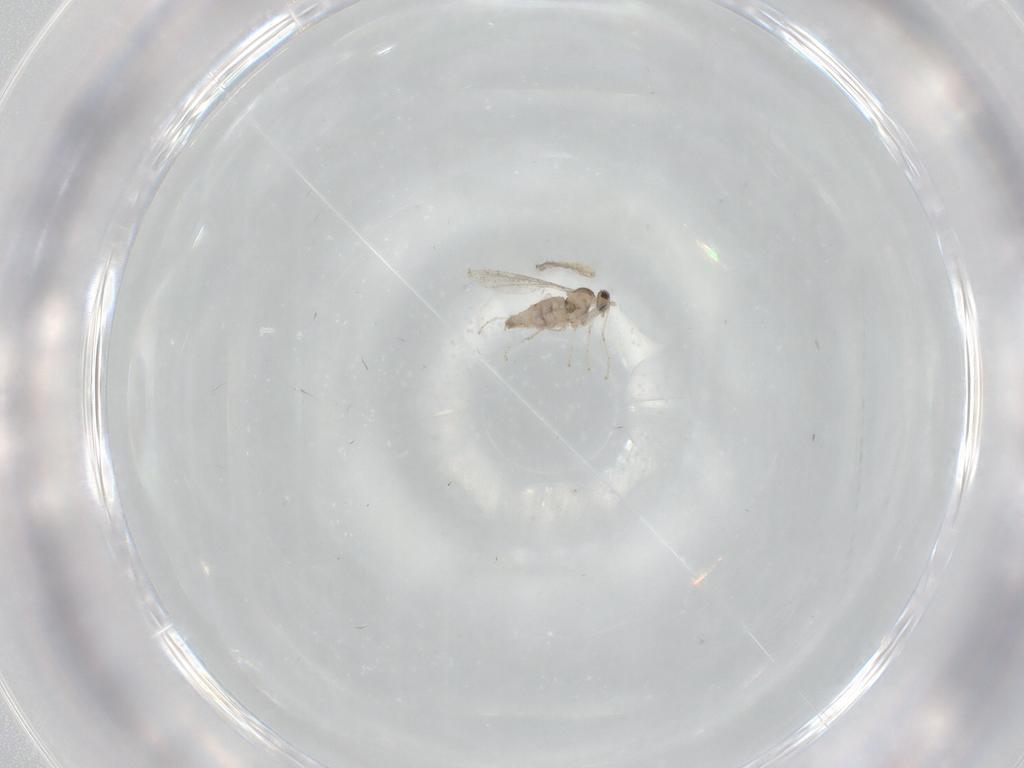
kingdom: Animalia
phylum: Arthropoda
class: Insecta
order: Diptera
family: Cecidomyiidae
